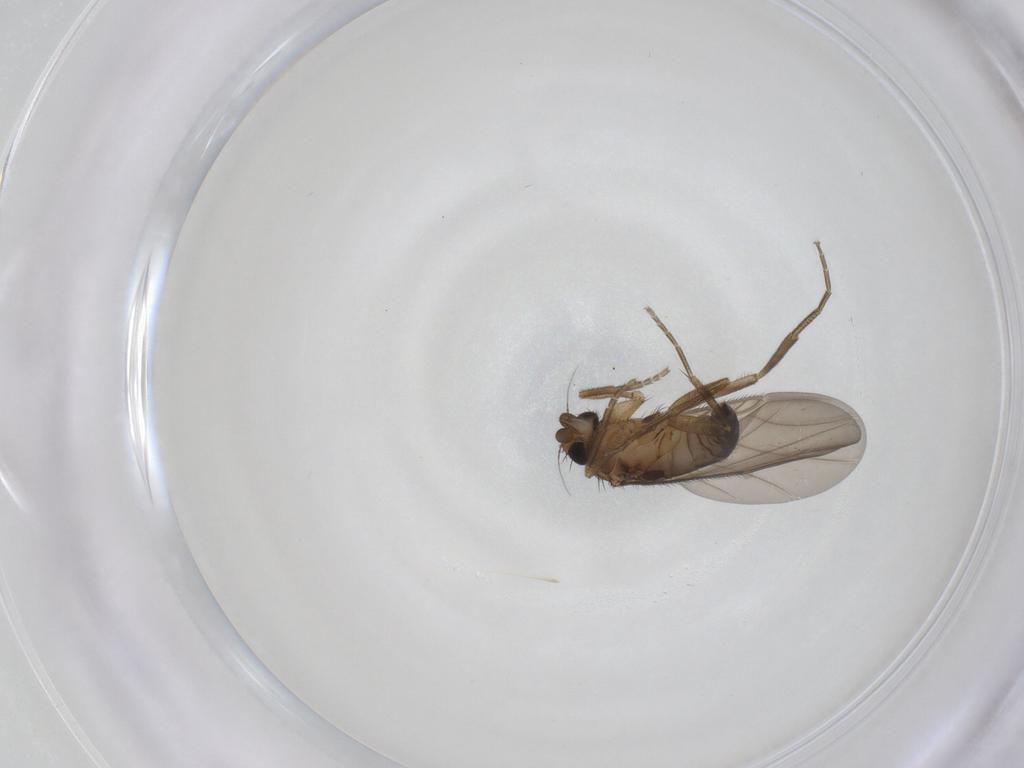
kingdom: Animalia
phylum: Arthropoda
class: Insecta
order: Diptera
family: Phoridae
